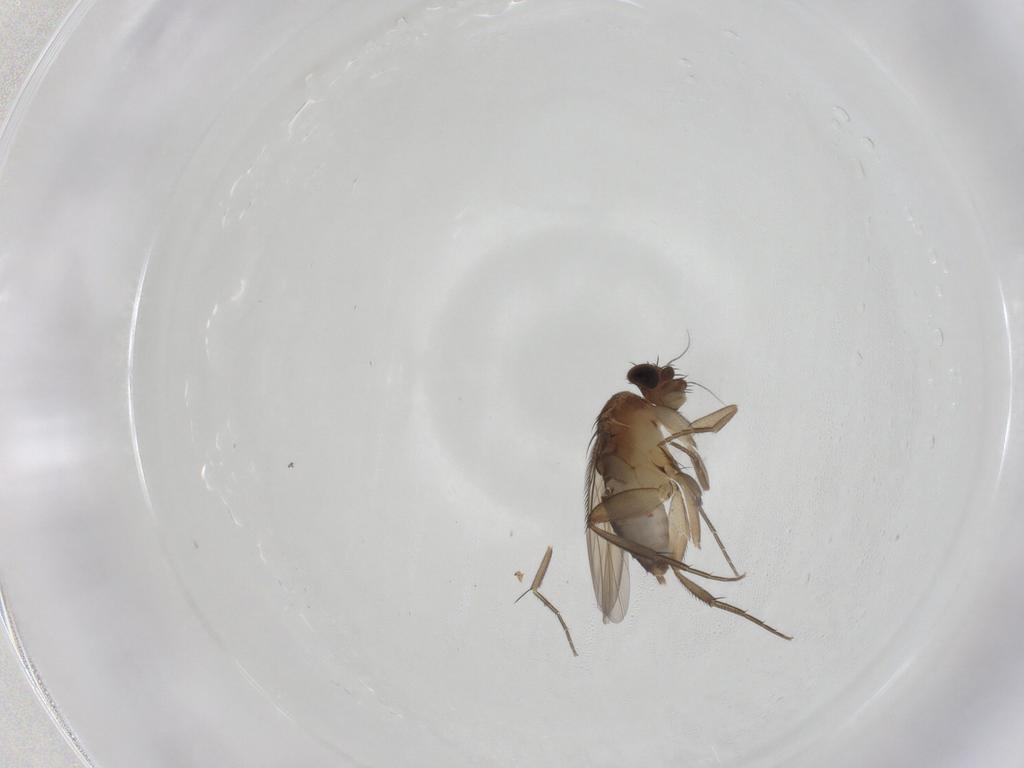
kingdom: Animalia
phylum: Arthropoda
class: Insecta
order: Diptera
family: Phoridae
